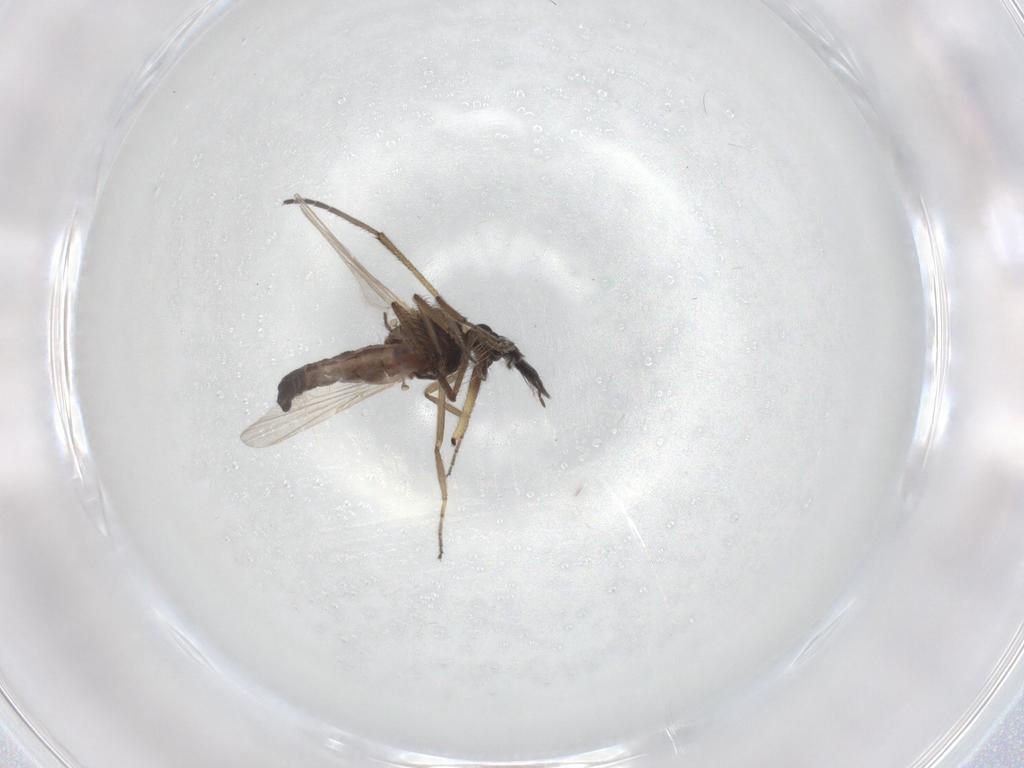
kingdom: Animalia
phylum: Arthropoda
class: Insecta
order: Diptera
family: Ceratopogonidae
